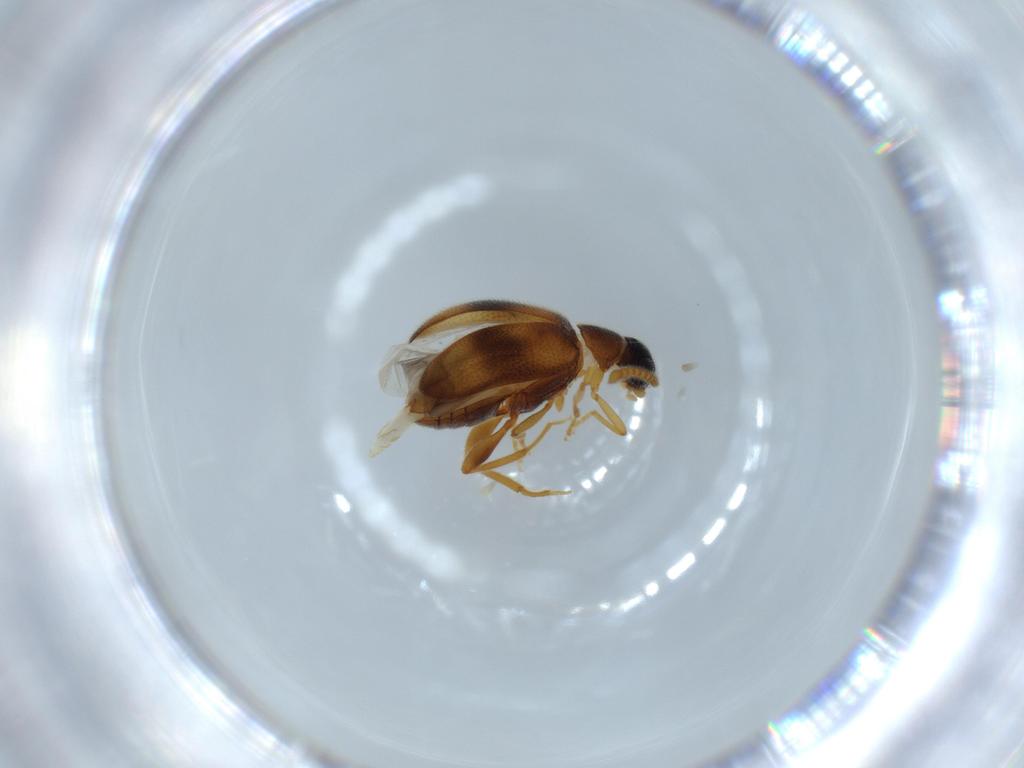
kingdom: Animalia
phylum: Arthropoda
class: Insecta
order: Coleoptera
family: Aderidae
